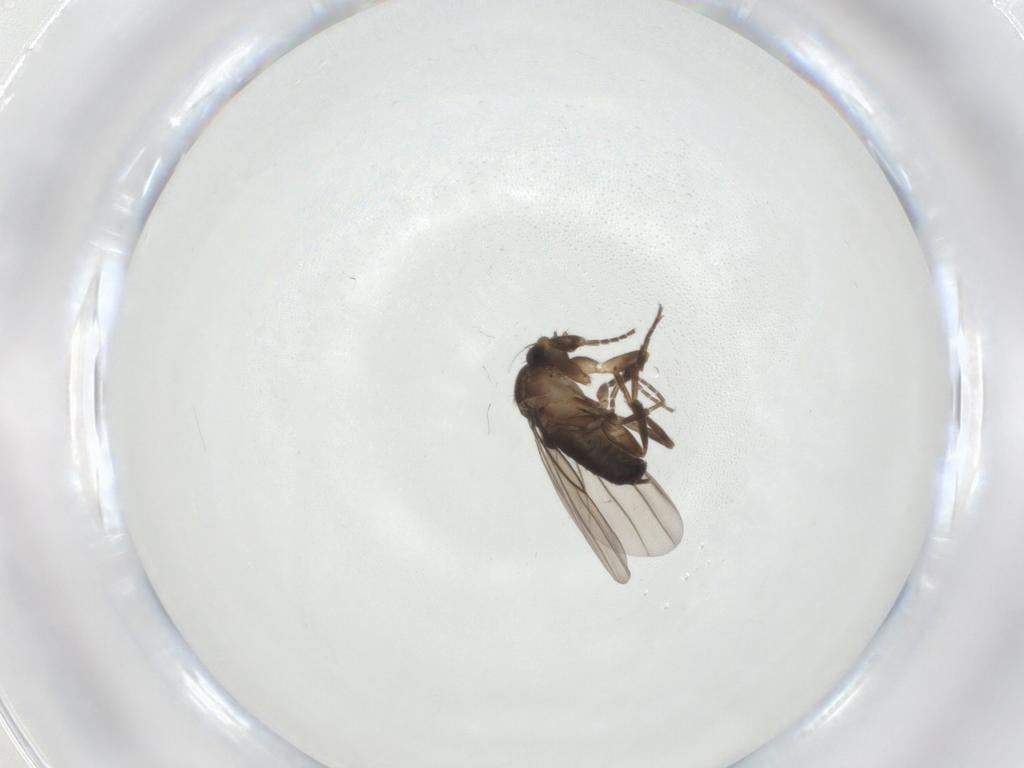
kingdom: Animalia
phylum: Arthropoda
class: Insecta
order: Diptera
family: Phoridae
